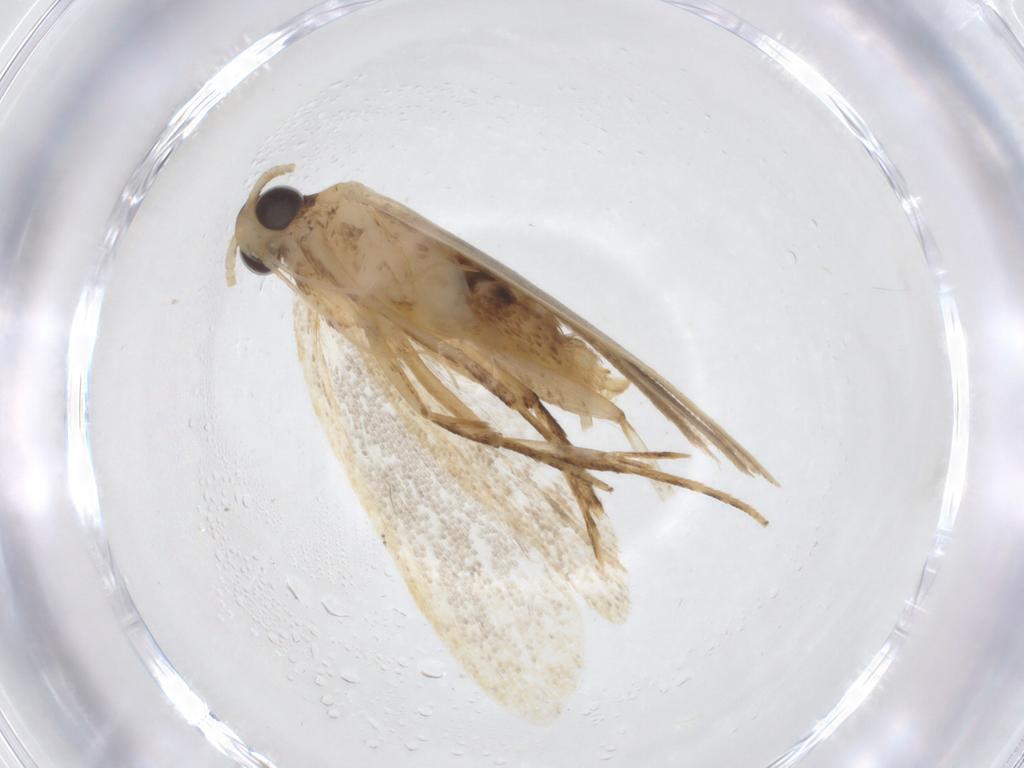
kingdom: Animalia
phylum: Arthropoda
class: Insecta
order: Lepidoptera
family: Lecithoceridae
